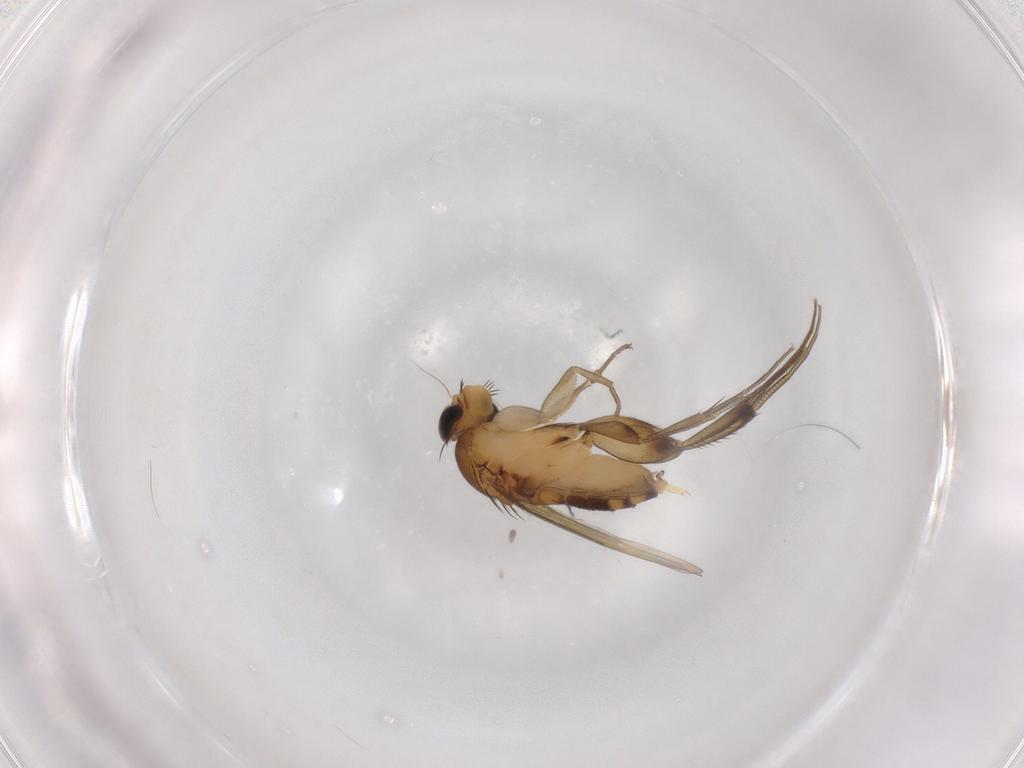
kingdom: Animalia
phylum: Arthropoda
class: Insecta
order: Diptera
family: Phoridae
